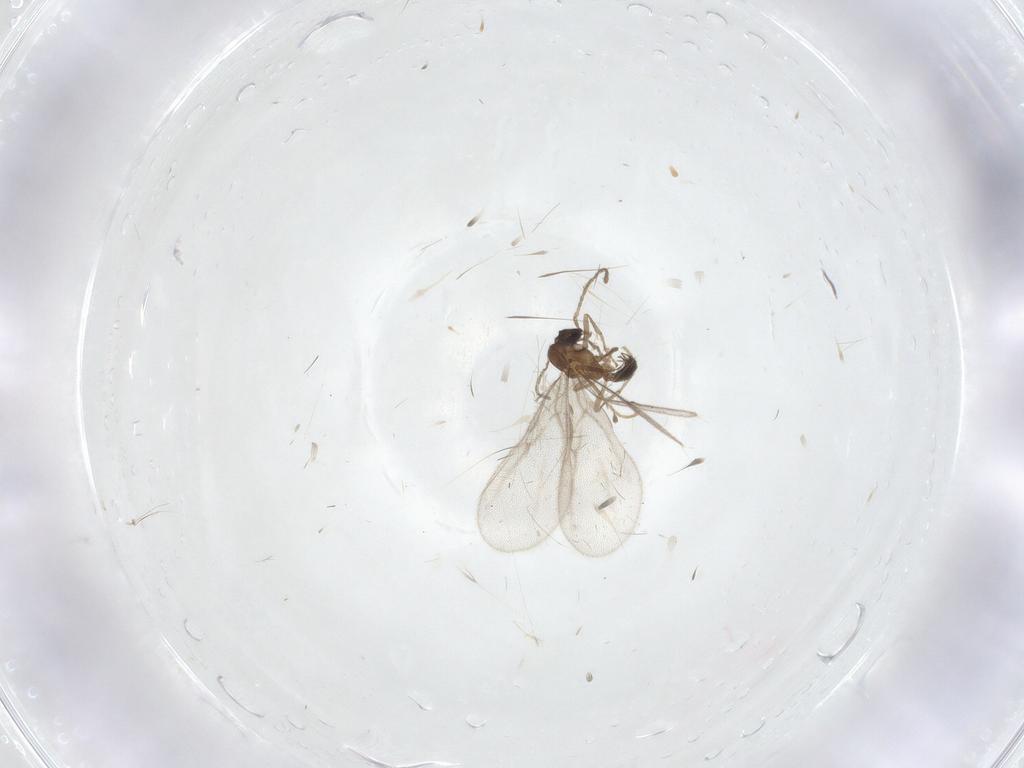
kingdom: Animalia
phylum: Arthropoda
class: Insecta
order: Hymenoptera
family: Formicidae
